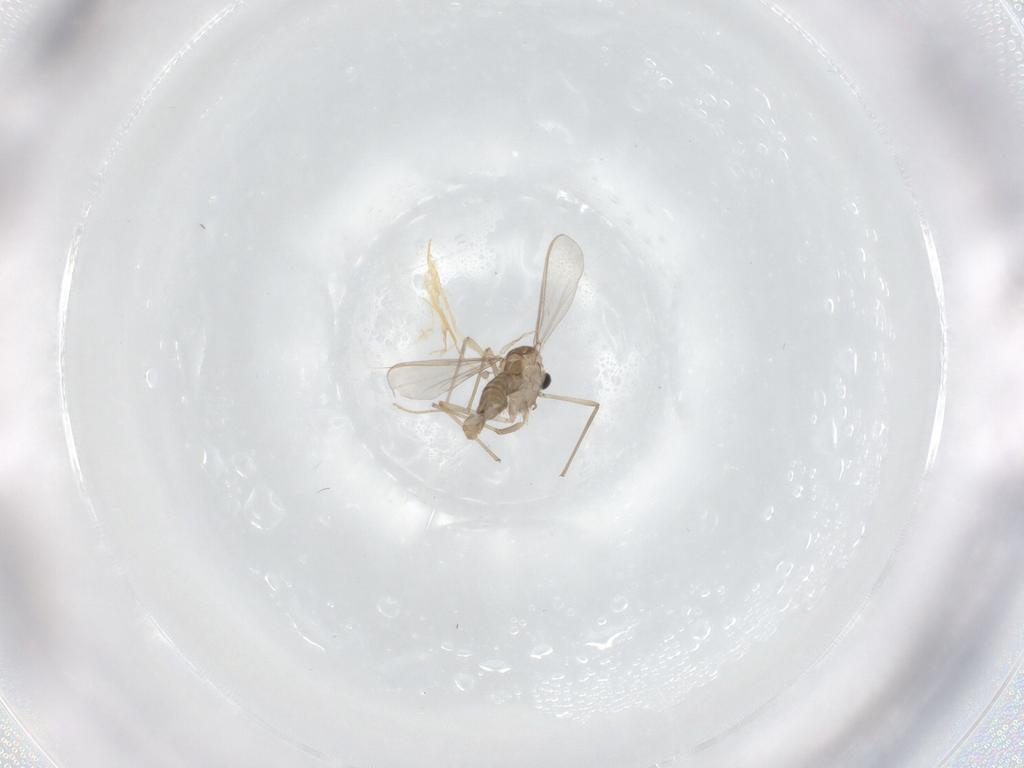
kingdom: Animalia
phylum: Arthropoda
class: Insecta
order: Diptera
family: Chironomidae
